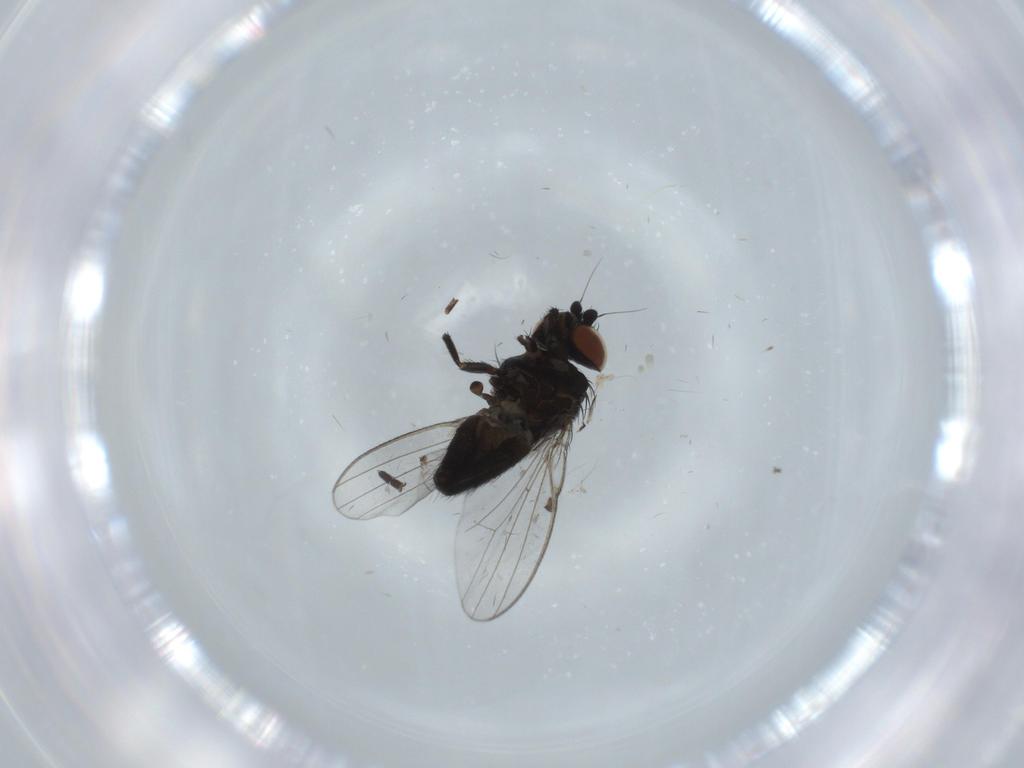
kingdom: Animalia
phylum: Arthropoda
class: Insecta
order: Diptera
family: Milichiidae
